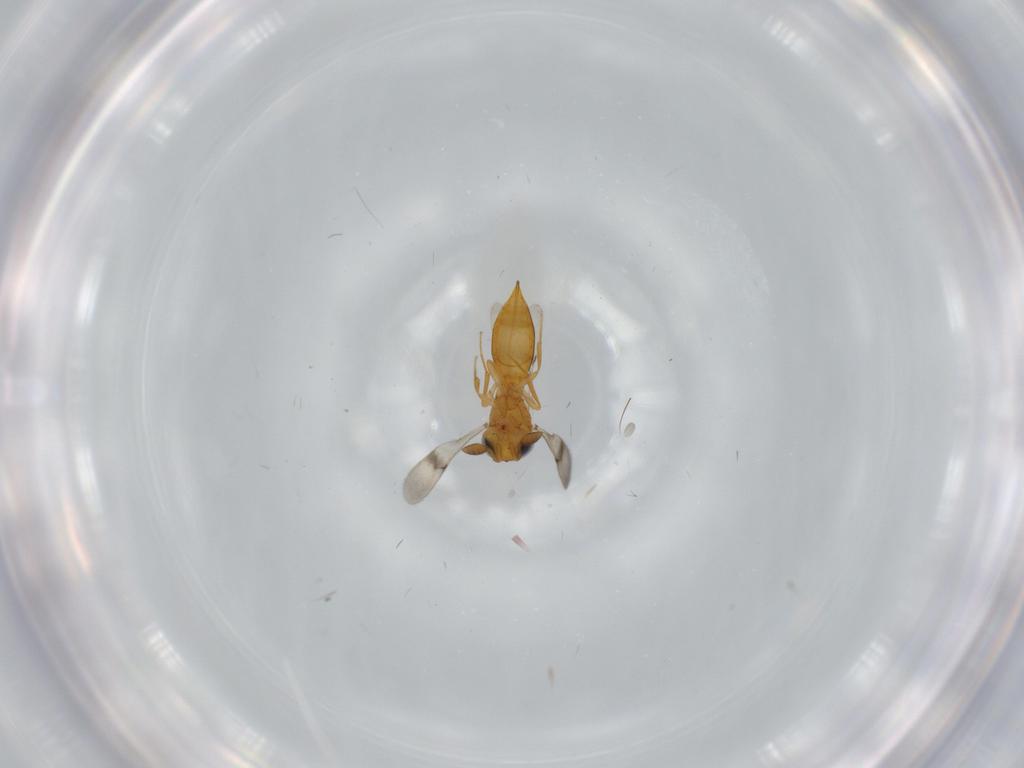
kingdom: Animalia
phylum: Arthropoda
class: Insecta
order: Hymenoptera
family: Scelionidae
